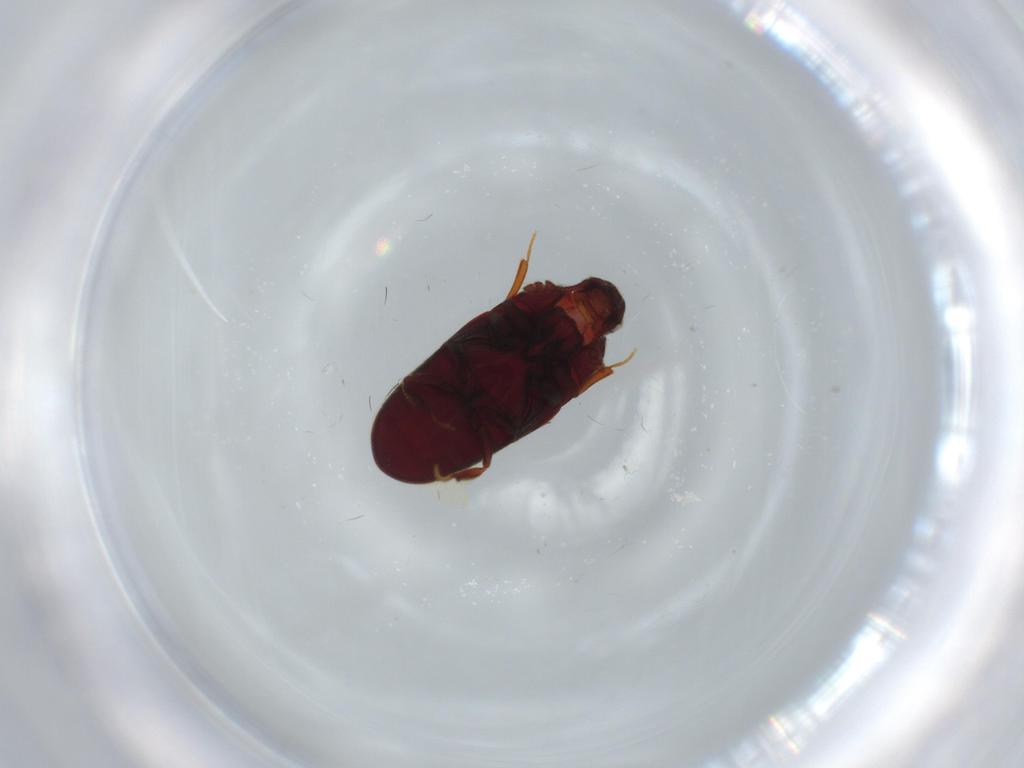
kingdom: Animalia
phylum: Arthropoda
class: Insecta
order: Coleoptera
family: Throscidae
